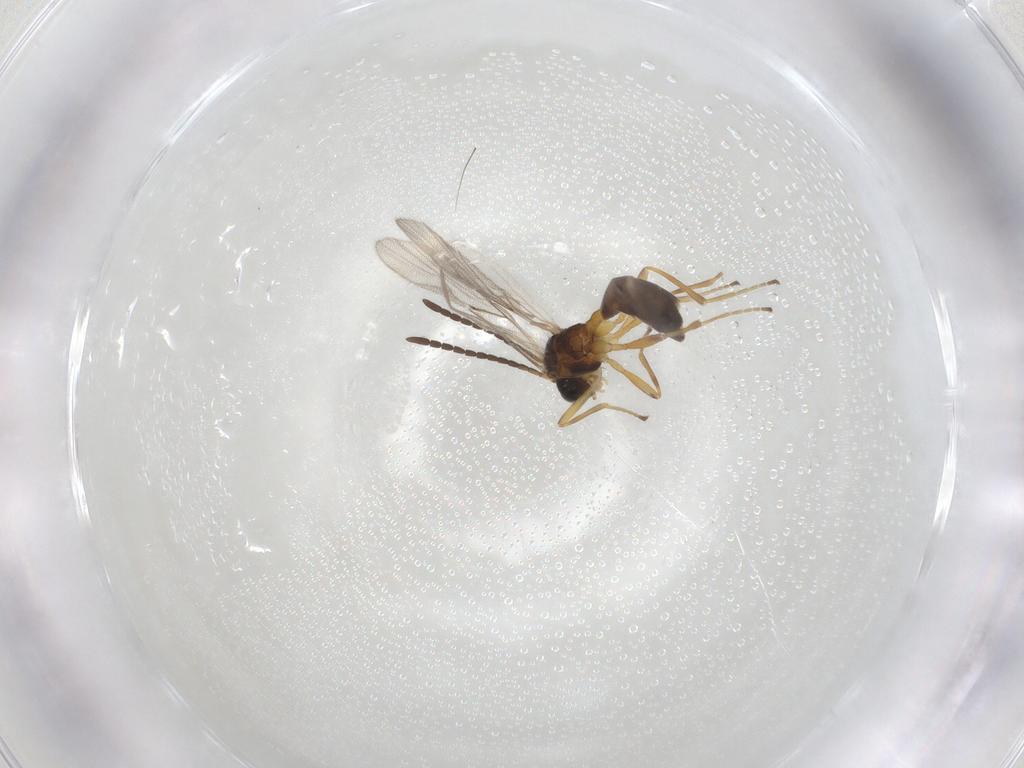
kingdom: Animalia
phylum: Arthropoda
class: Insecta
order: Hymenoptera
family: Braconidae
